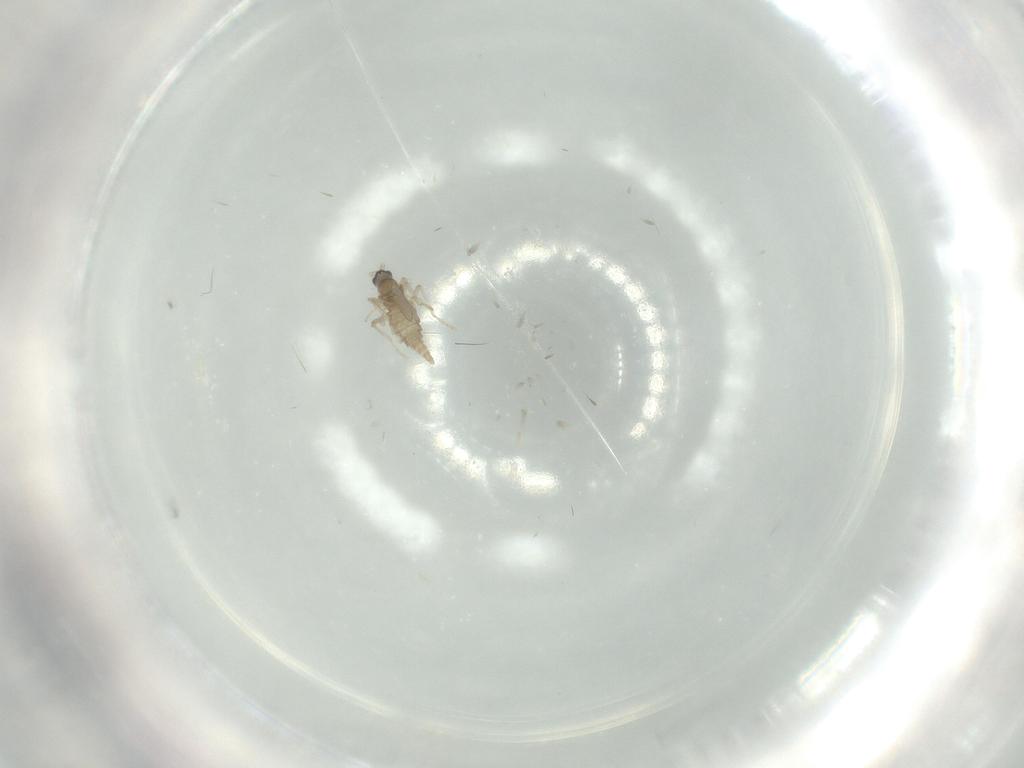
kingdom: Animalia
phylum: Arthropoda
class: Insecta
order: Diptera
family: Cecidomyiidae
